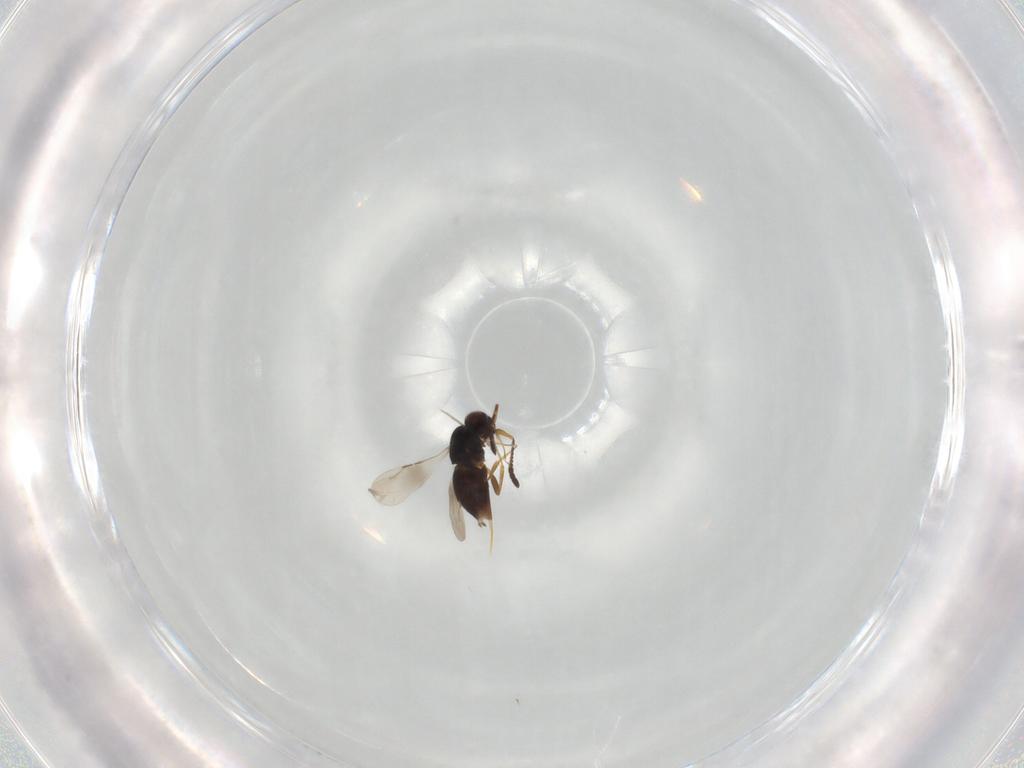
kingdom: Animalia
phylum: Arthropoda
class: Insecta
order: Hymenoptera
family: Ceraphronidae
